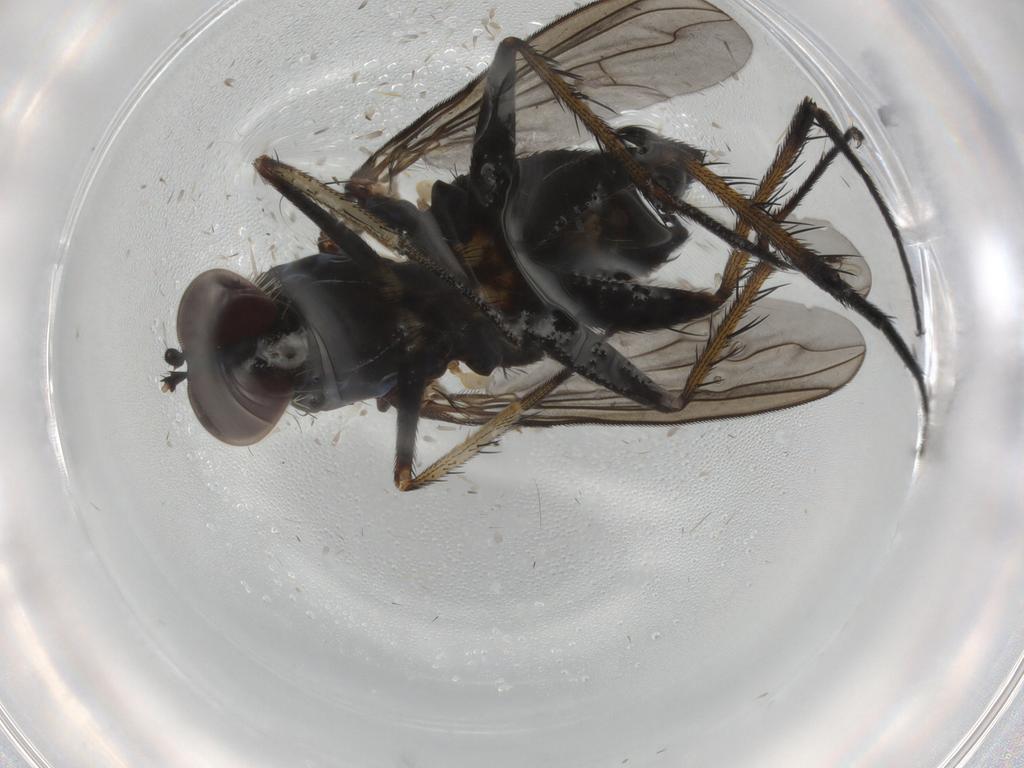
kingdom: Animalia
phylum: Arthropoda
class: Insecta
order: Diptera
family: Dolichopodidae
